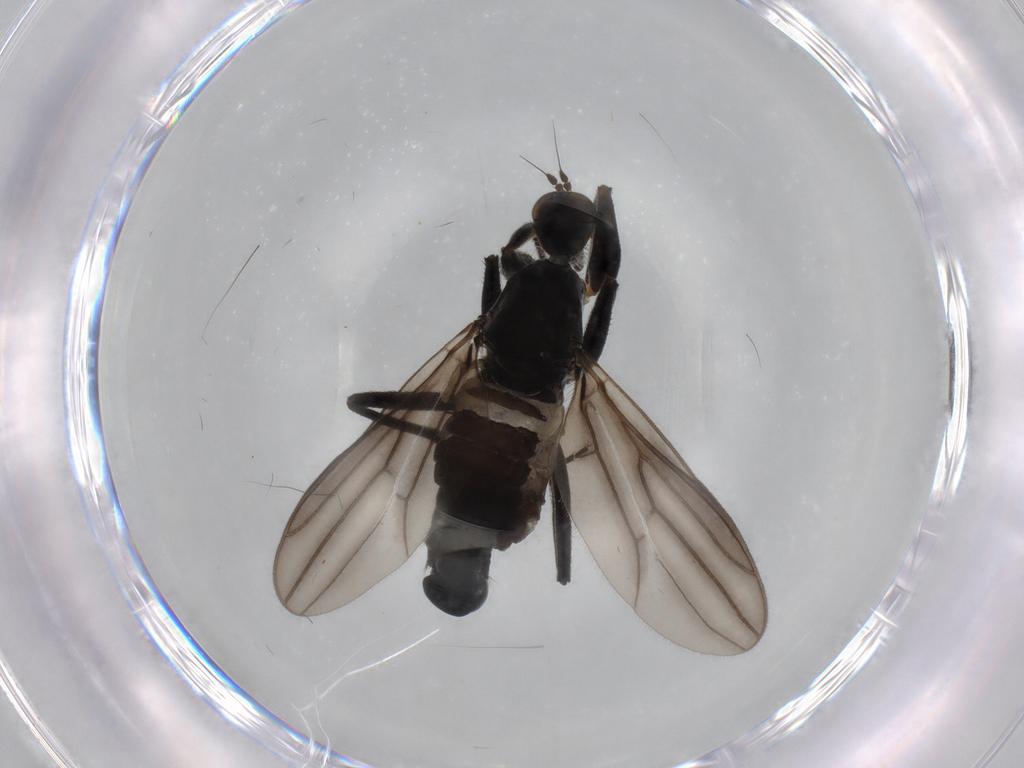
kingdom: Animalia
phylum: Arthropoda
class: Insecta
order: Diptera
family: Hybotidae
